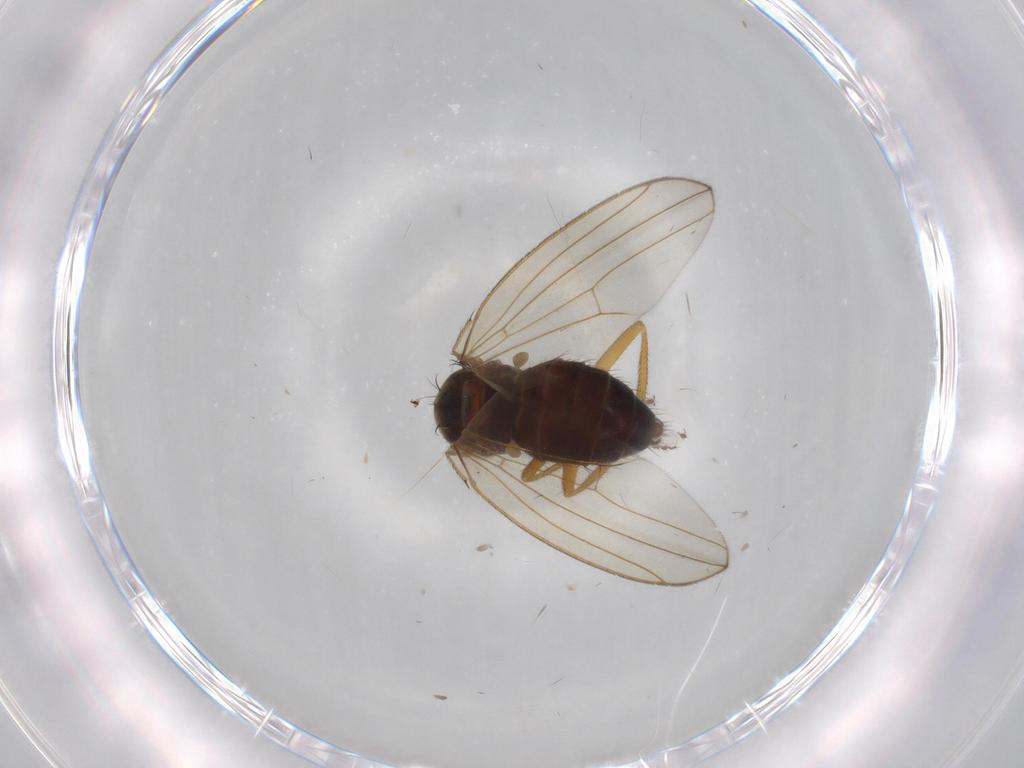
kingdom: Animalia
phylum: Arthropoda
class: Insecta
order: Diptera
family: Drosophilidae
